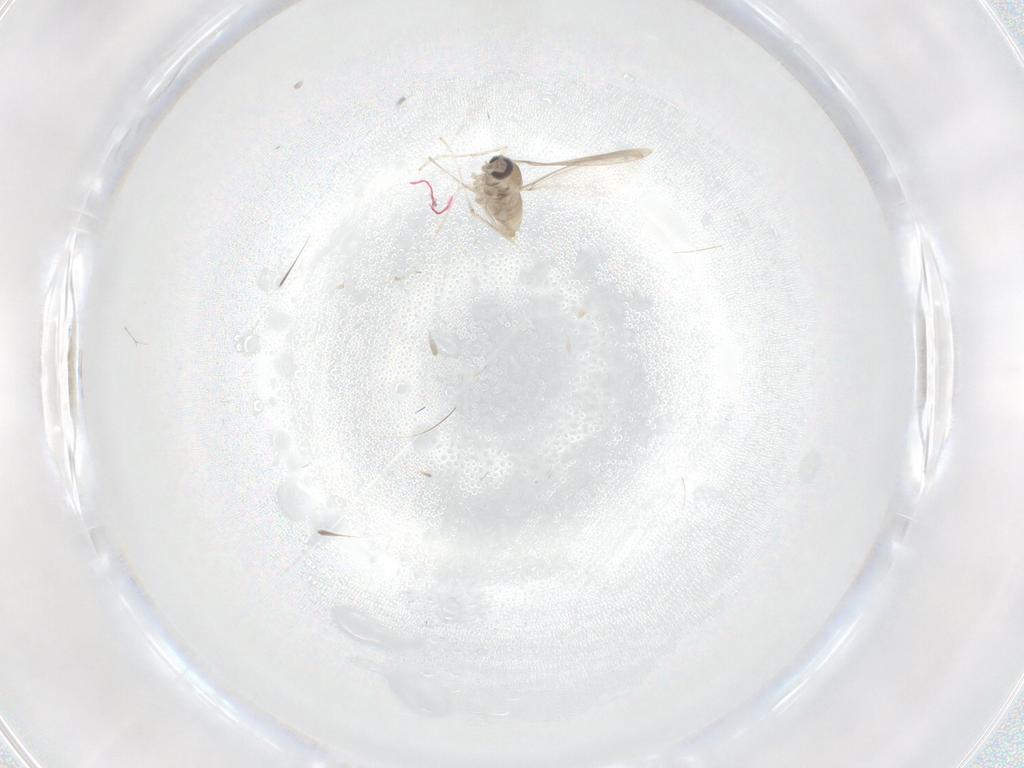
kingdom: Animalia
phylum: Arthropoda
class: Insecta
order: Diptera
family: Cecidomyiidae
